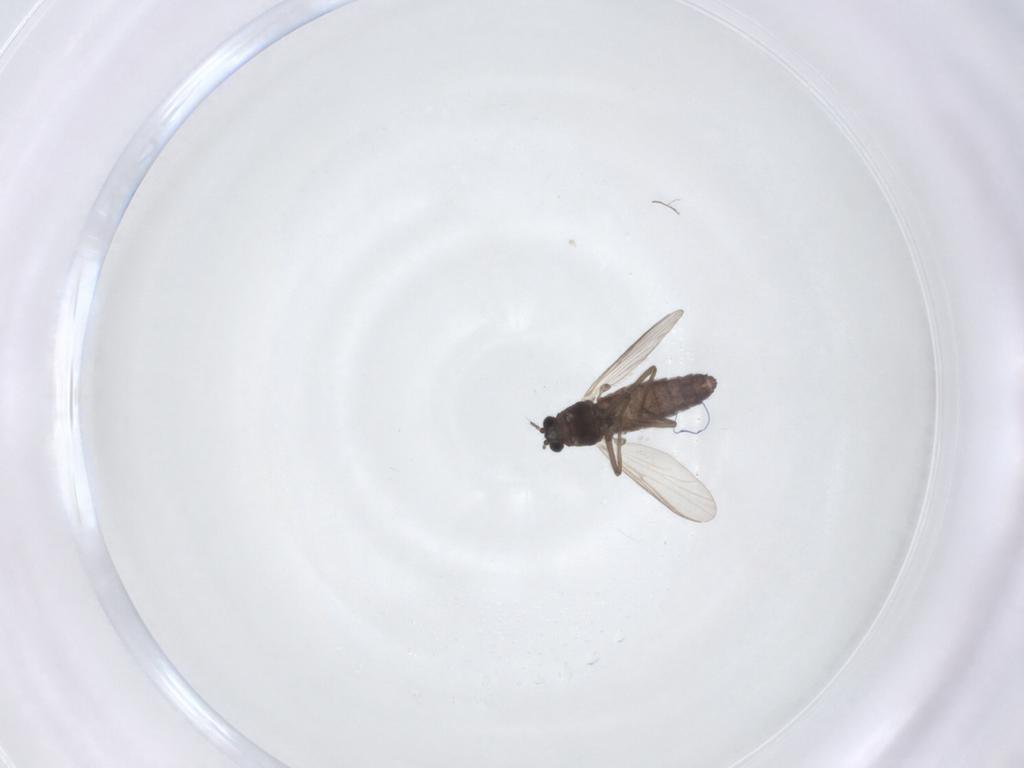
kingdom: Animalia
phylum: Arthropoda
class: Insecta
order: Diptera
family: Chironomidae
